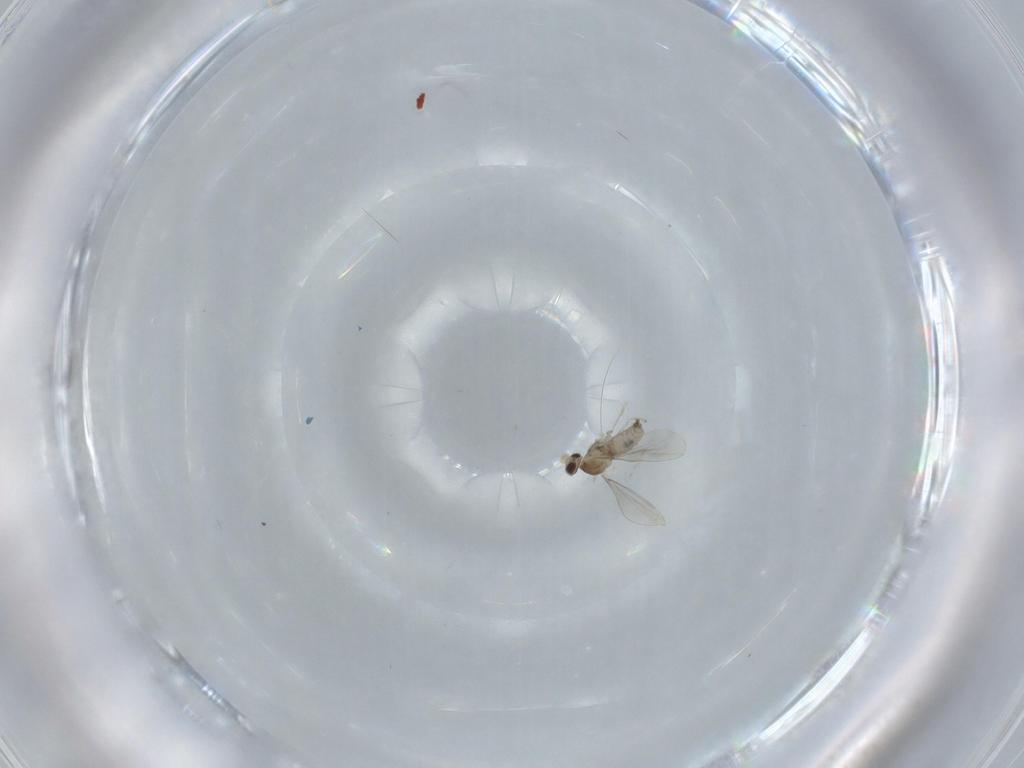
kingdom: Animalia
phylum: Arthropoda
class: Insecta
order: Diptera
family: Cecidomyiidae
